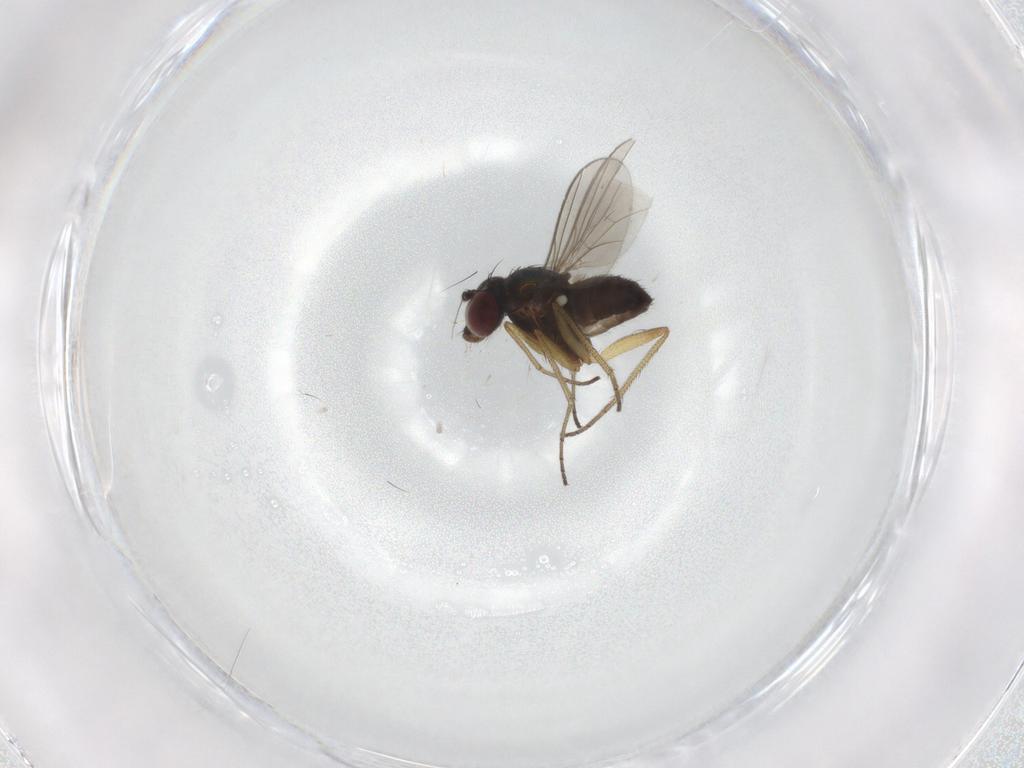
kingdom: Animalia
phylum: Arthropoda
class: Insecta
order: Diptera
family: Dolichopodidae
